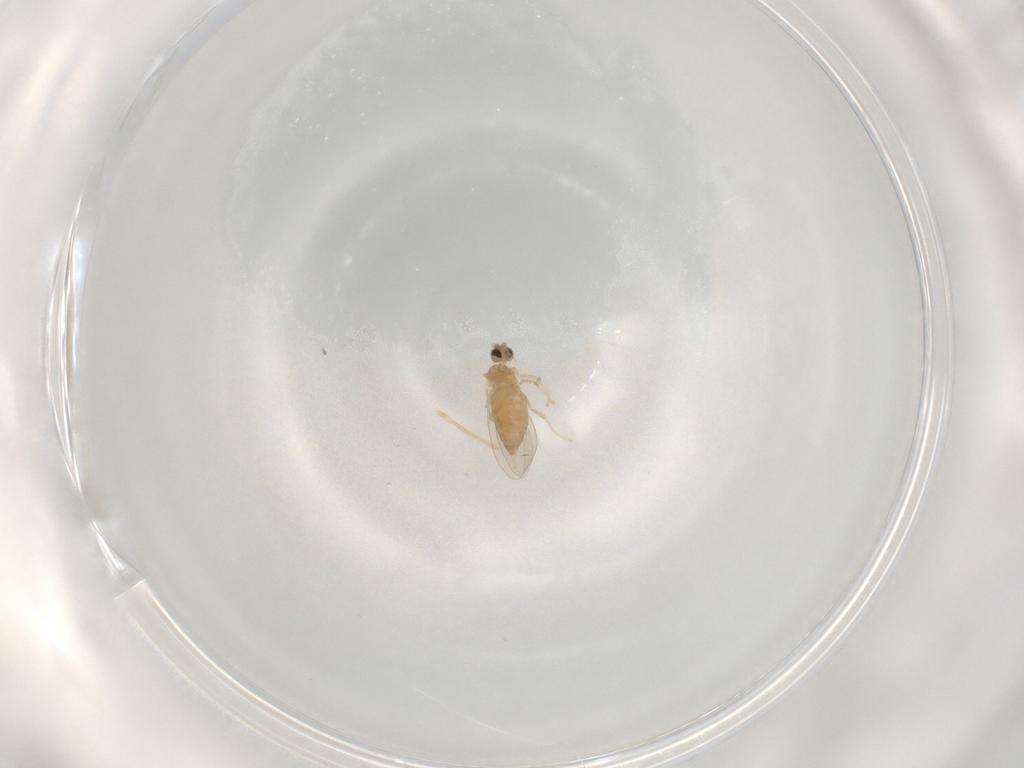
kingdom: Animalia
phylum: Arthropoda
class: Insecta
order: Diptera
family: Cecidomyiidae
